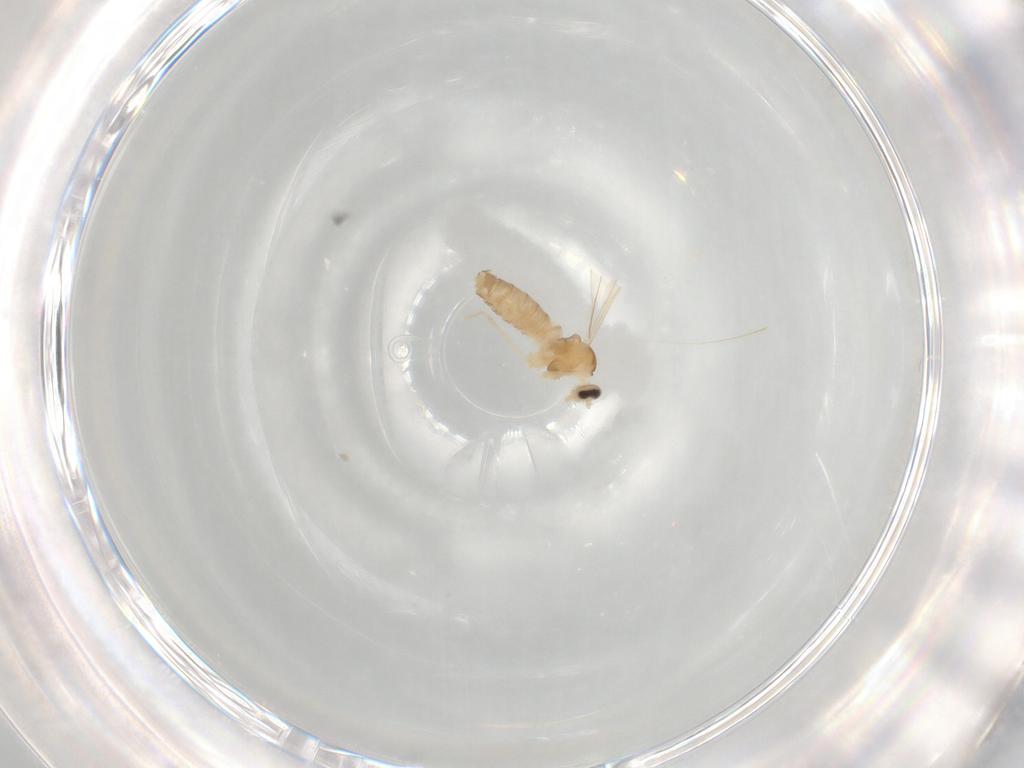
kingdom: Animalia
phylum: Arthropoda
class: Insecta
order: Diptera
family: Cecidomyiidae
